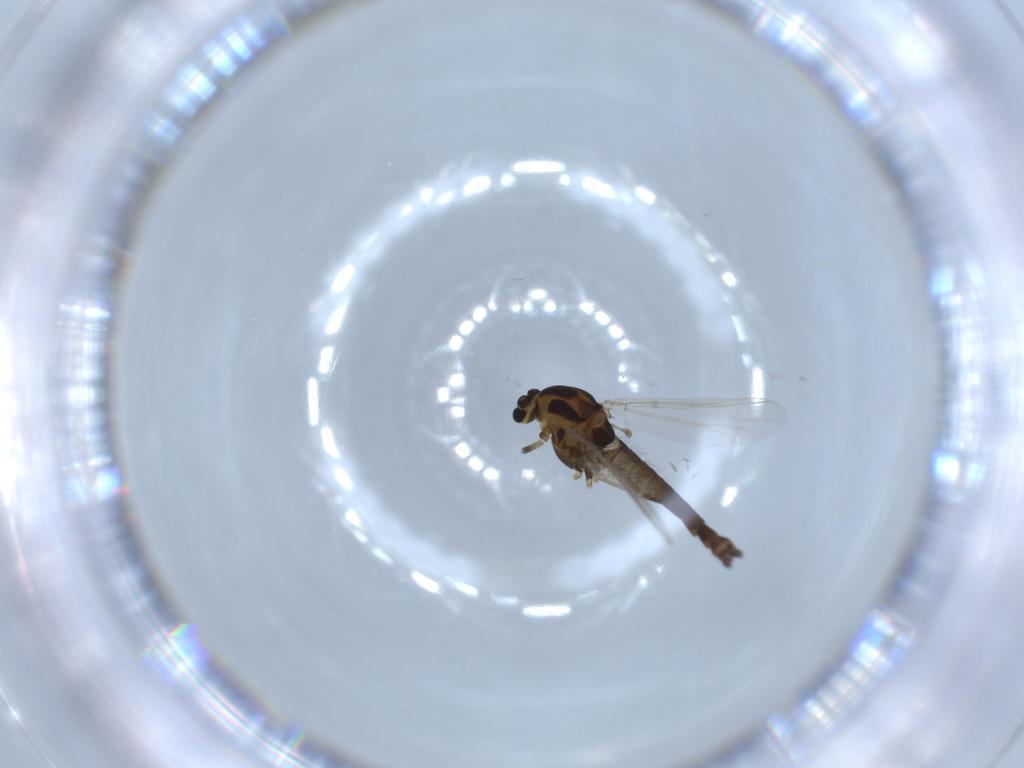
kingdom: Animalia
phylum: Arthropoda
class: Insecta
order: Diptera
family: Chironomidae
